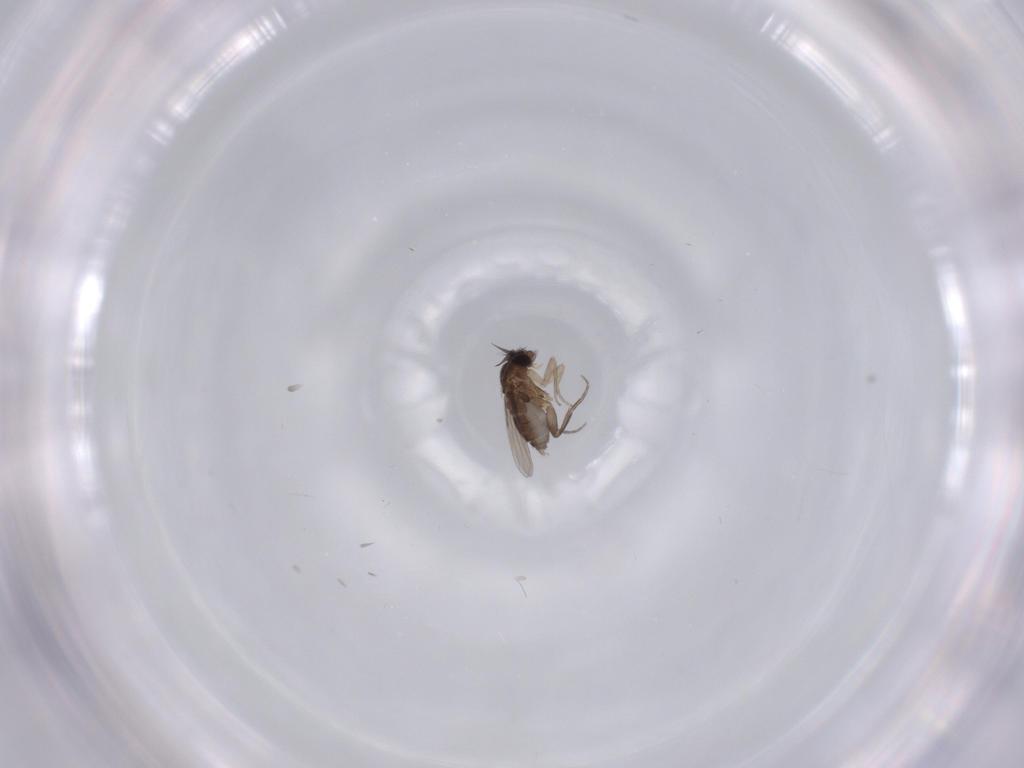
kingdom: Animalia
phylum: Arthropoda
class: Insecta
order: Diptera
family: Phoridae
